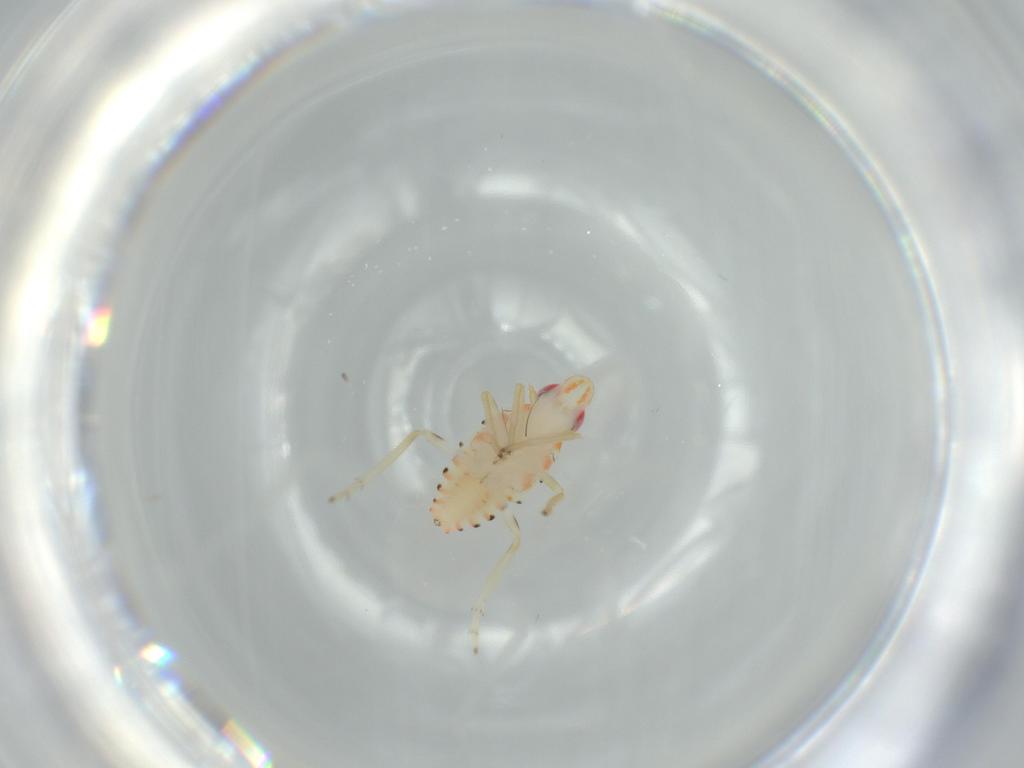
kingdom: Animalia
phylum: Arthropoda
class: Insecta
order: Hemiptera
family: Tropiduchidae
